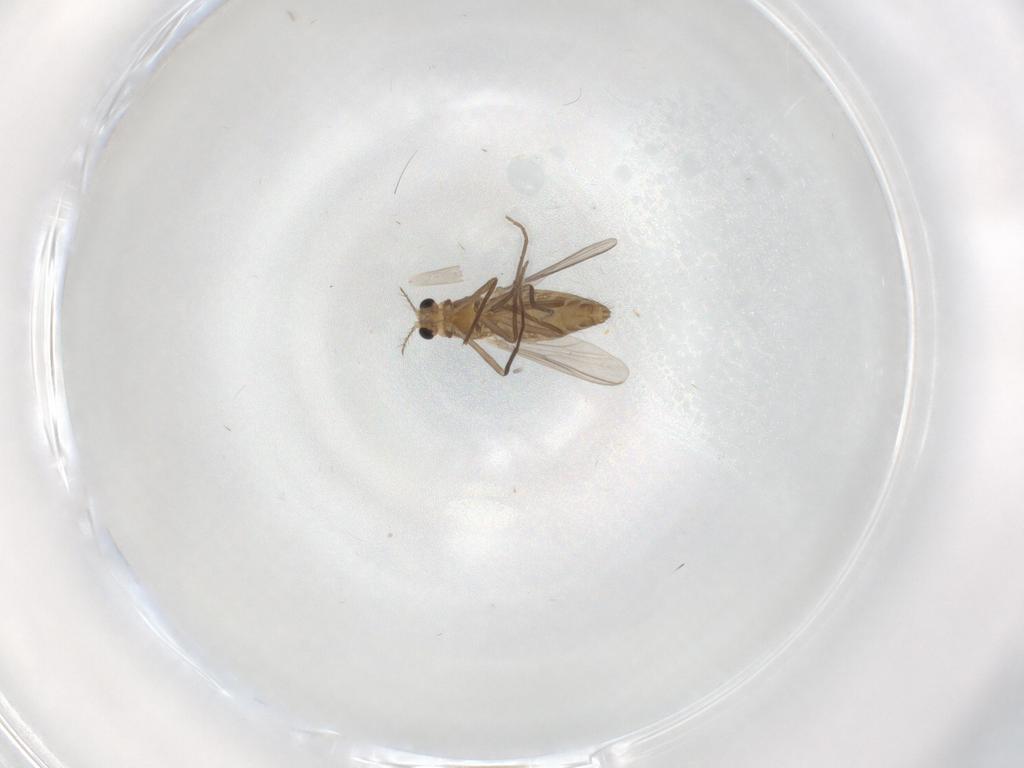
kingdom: Animalia
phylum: Arthropoda
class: Insecta
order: Diptera
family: Chironomidae
